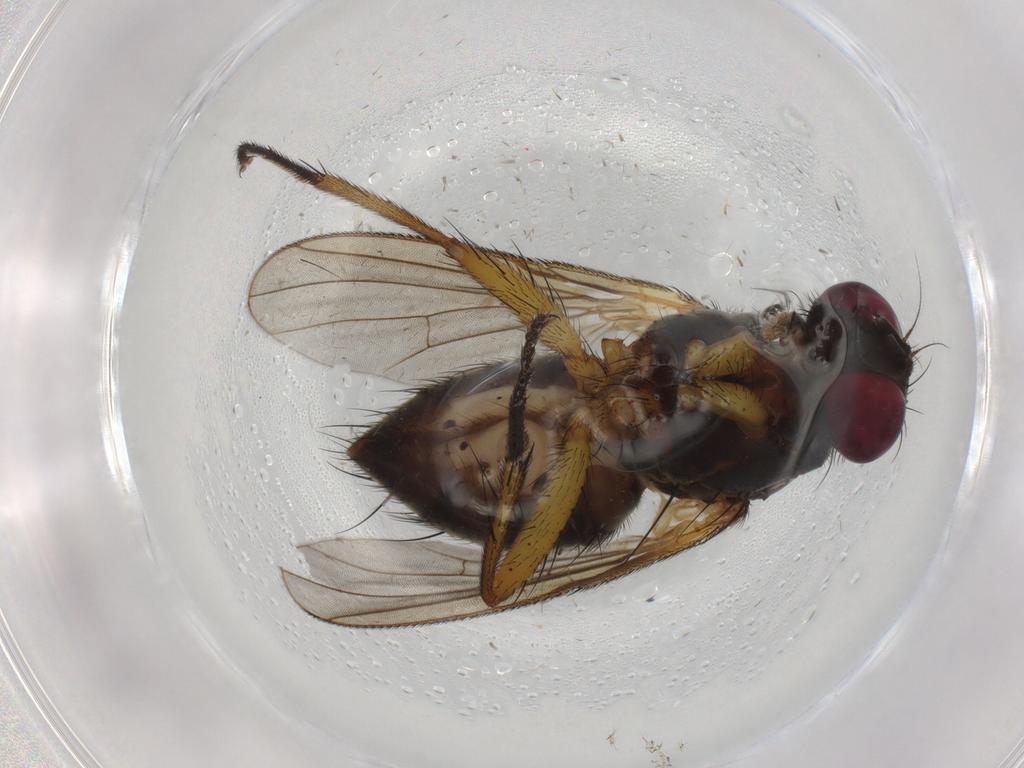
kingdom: Animalia
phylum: Arthropoda
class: Insecta
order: Diptera
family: Muscidae
